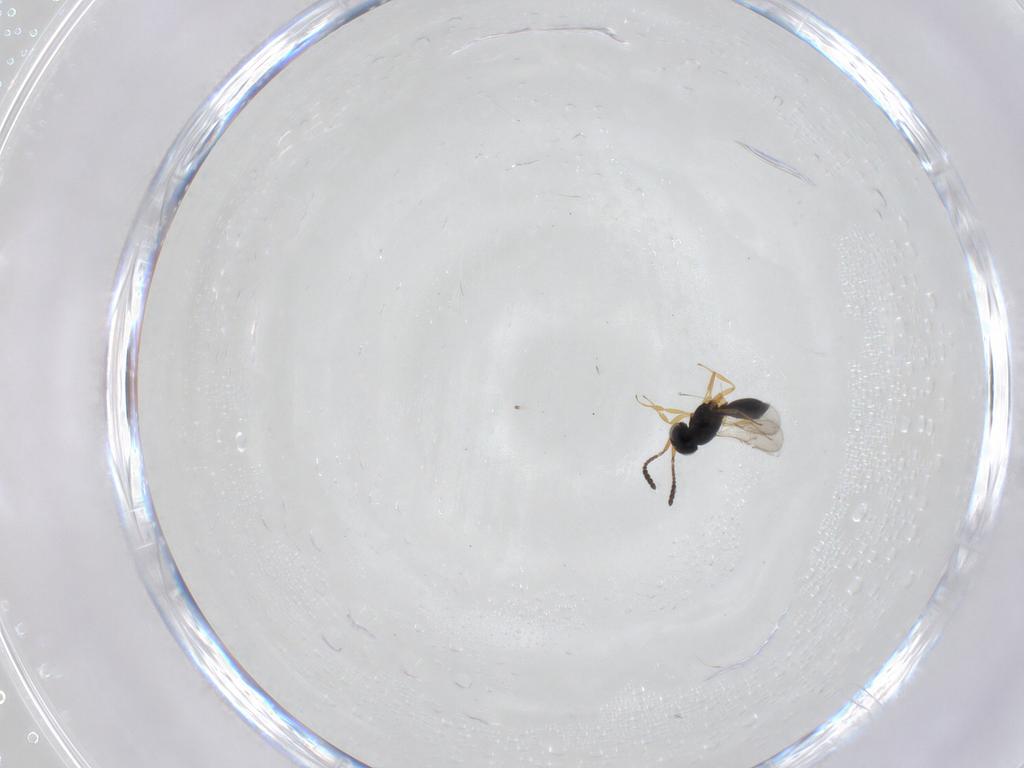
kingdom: Animalia
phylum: Arthropoda
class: Insecta
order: Hymenoptera
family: Scelionidae
